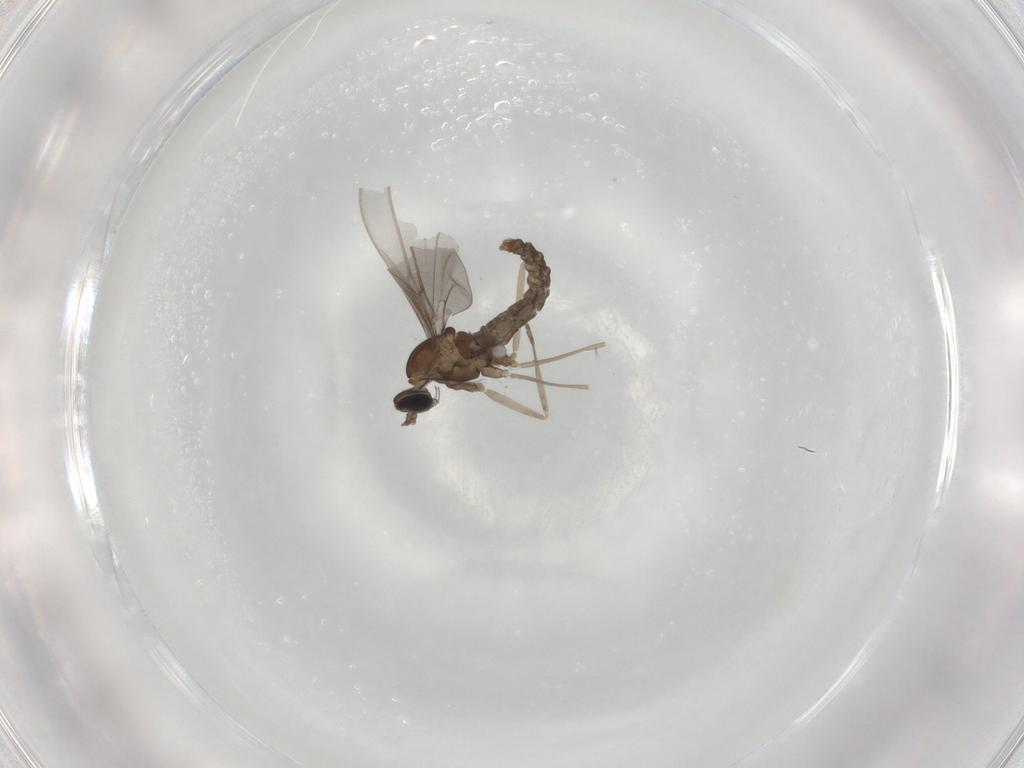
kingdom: Animalia
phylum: Arthropoda
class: Insecta
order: Diptera
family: Sciaridae
